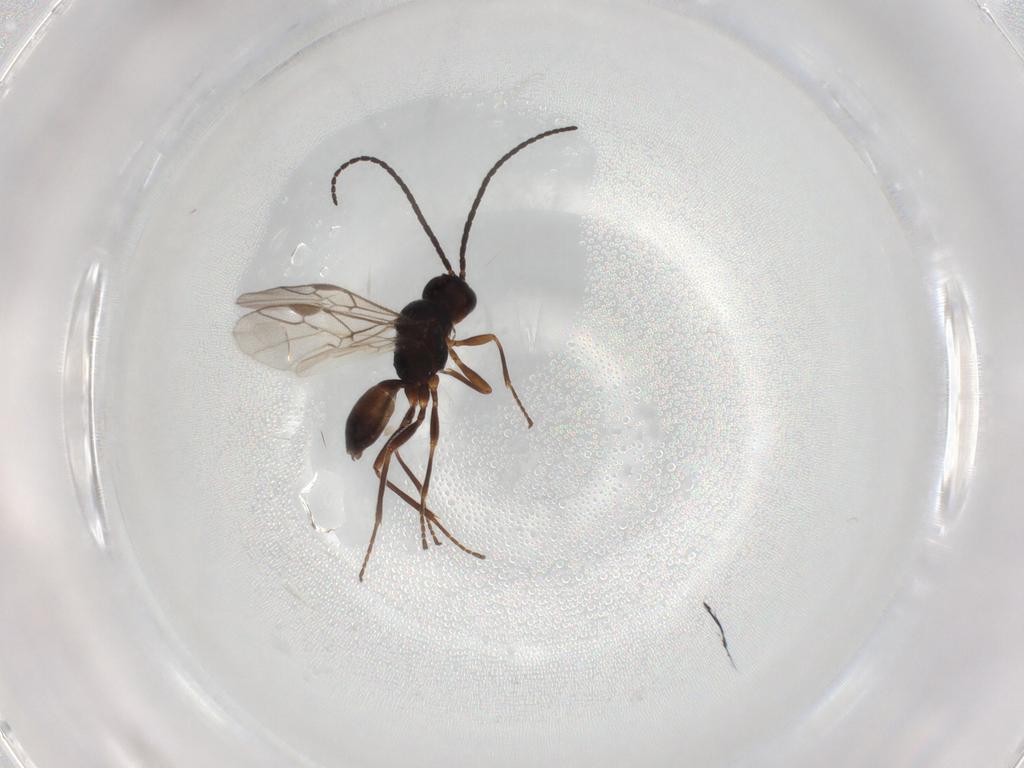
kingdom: Animalia
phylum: Arthropoda
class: Insecta
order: Hymenoptera
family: Braconidae
